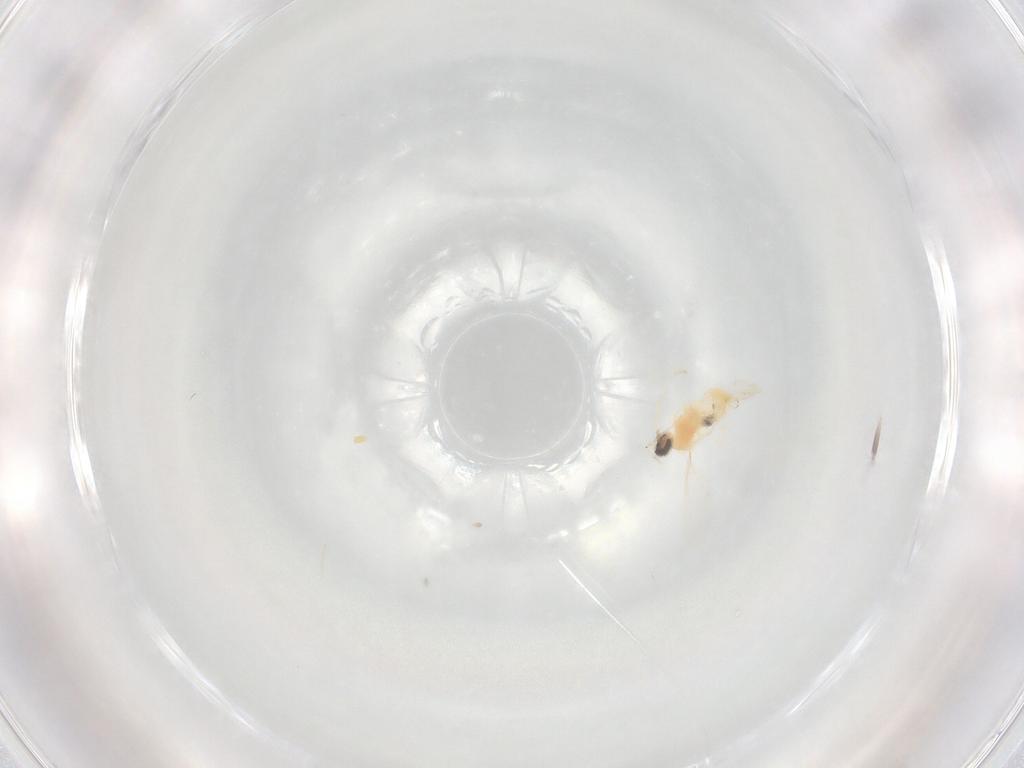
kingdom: Animalia
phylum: Arthropoda
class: Insecta
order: Diptera
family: Cecidomyiidae
